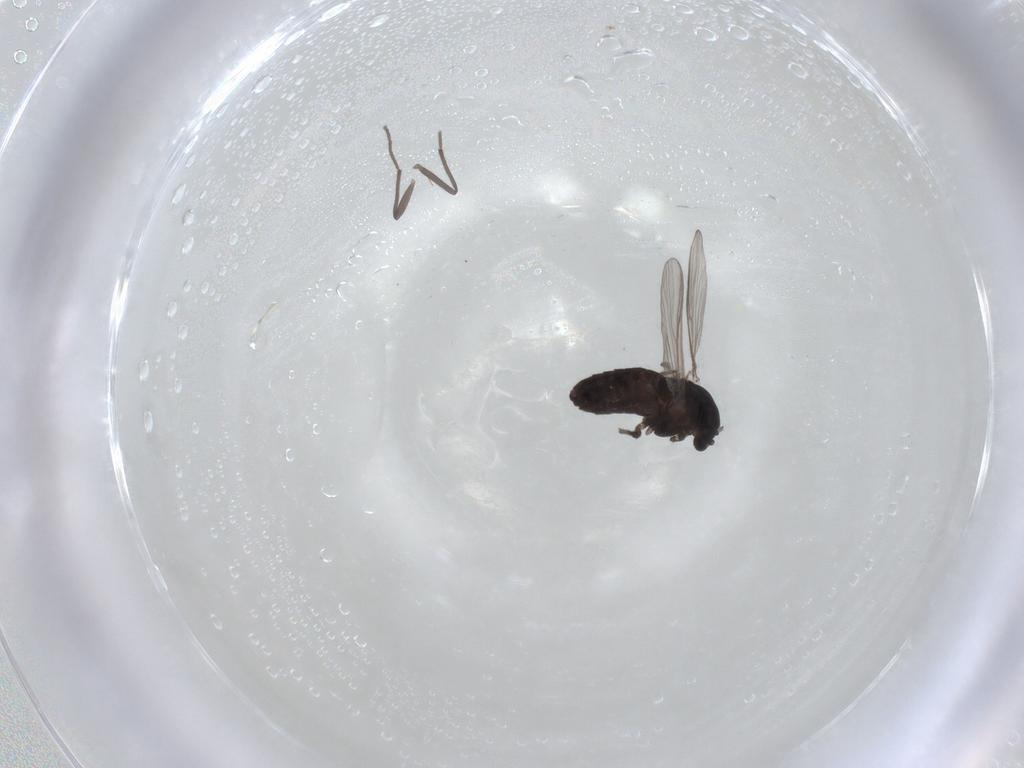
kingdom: Animalia
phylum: Arthropoda
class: Insecta
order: Diptera
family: Chironomidae
